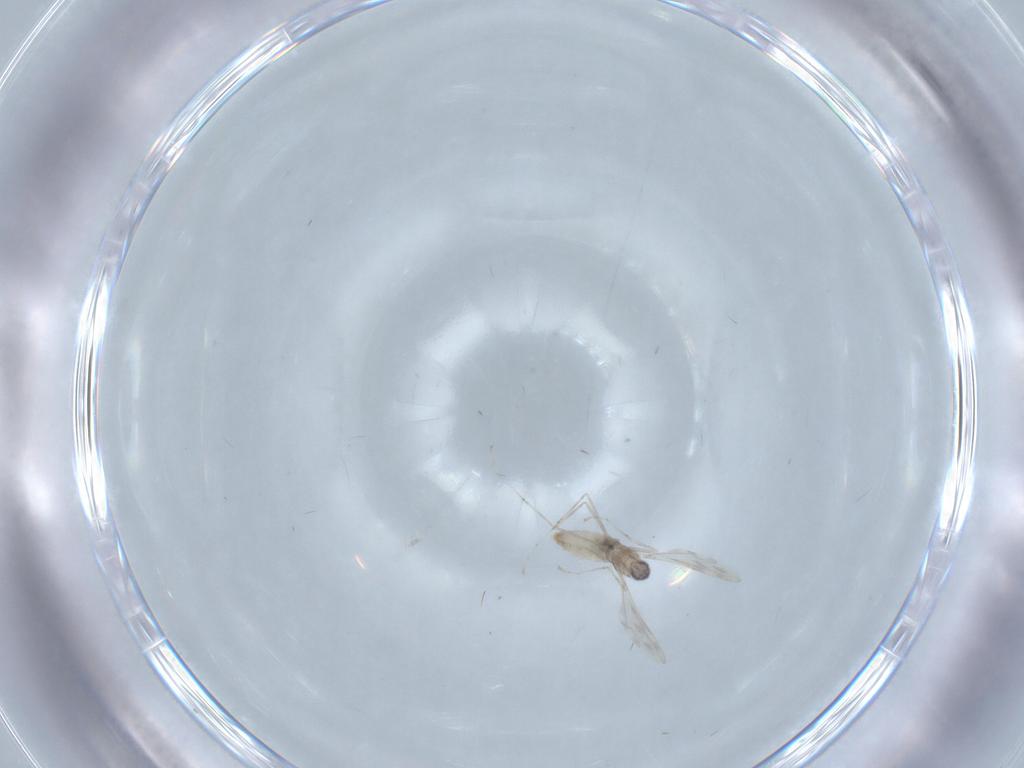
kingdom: Animalia
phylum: Arthropoda
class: Insecta
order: Diptera
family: Cecidomyiidae
